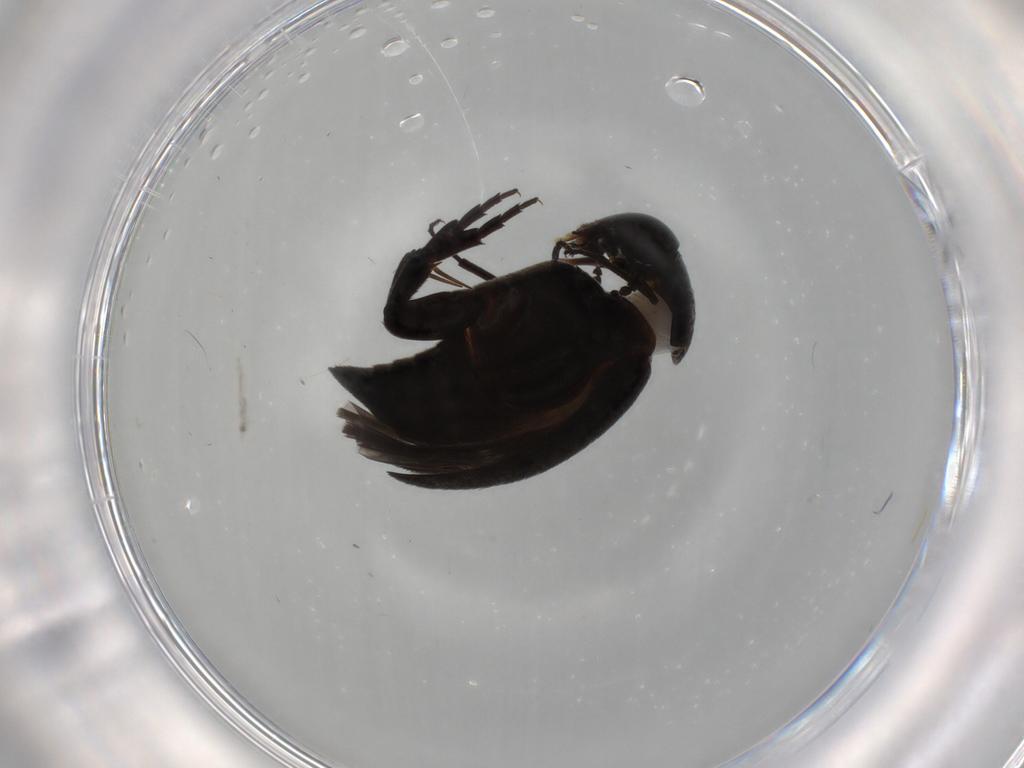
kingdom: Animalia
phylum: Arthropoda
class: Insecta
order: Coleoptera
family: Mordellidae
